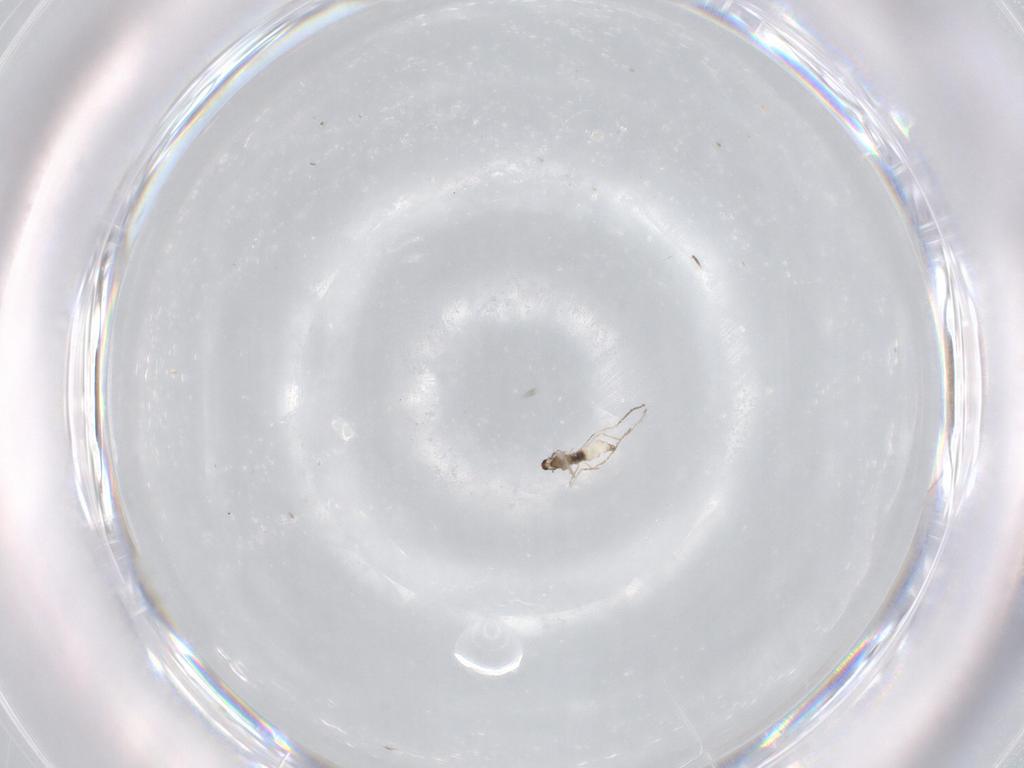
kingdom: Animalia
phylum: Arthropoda
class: Insecta
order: Diptera
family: Cecidomyiidae
